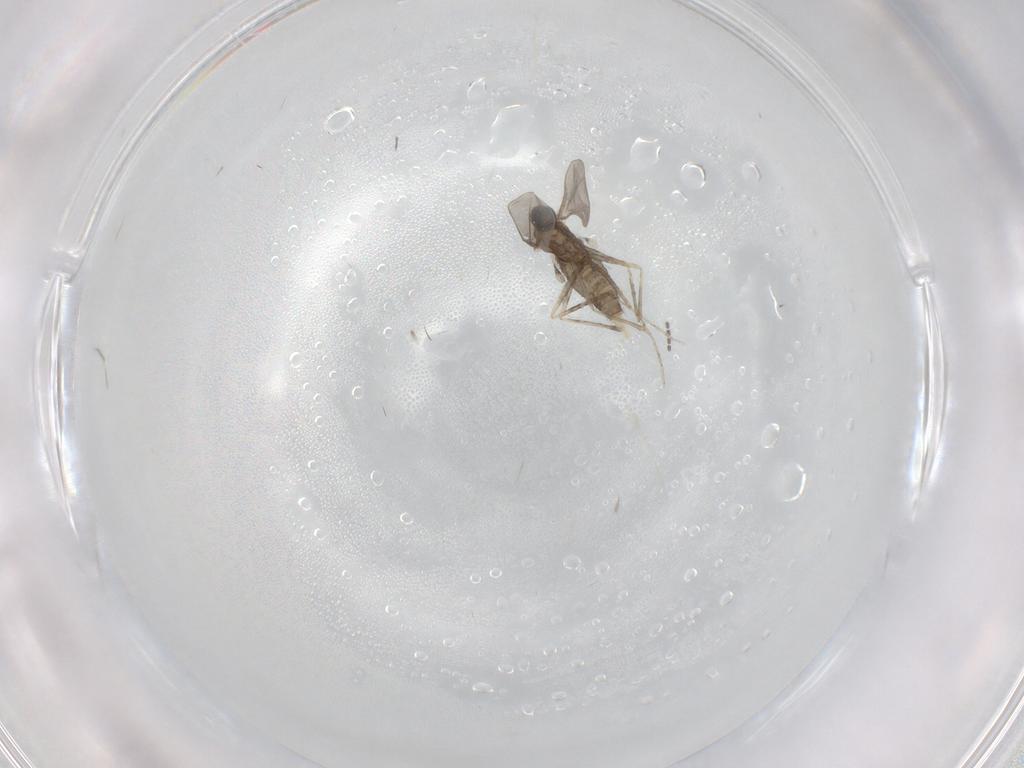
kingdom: Animalia
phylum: Arthropoda
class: Insecta
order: Diptera
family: Cecidomyiidae
